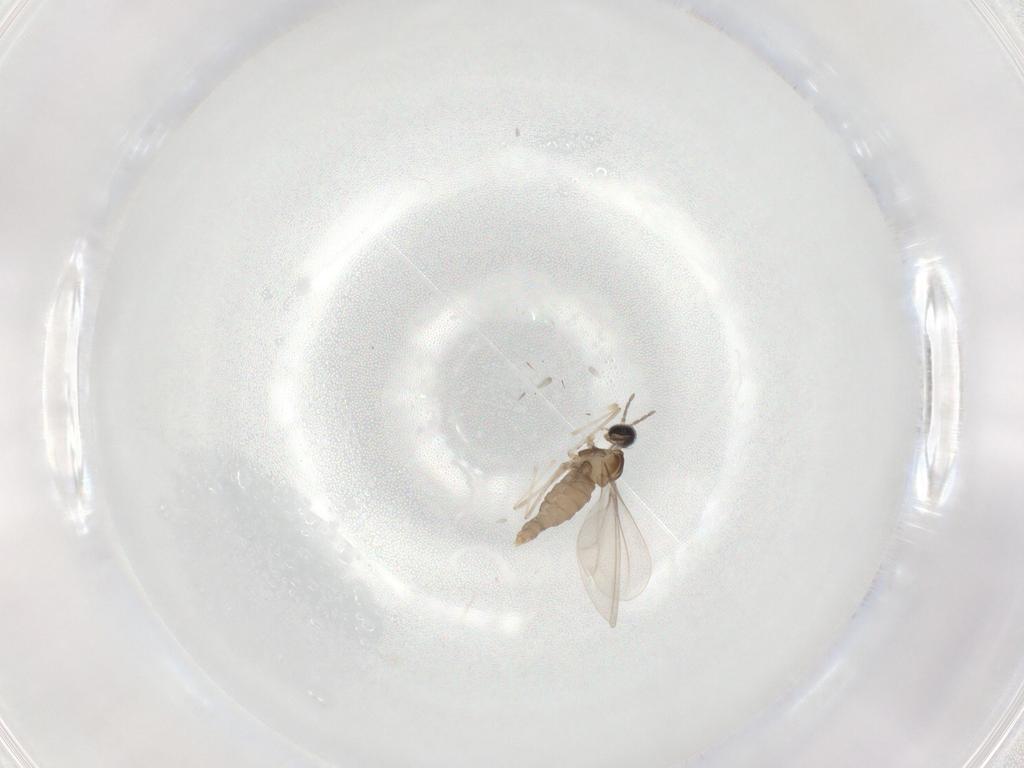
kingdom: Animalia
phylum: Arthropoda
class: Insecta
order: Diptera
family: Cecidomyiidae
